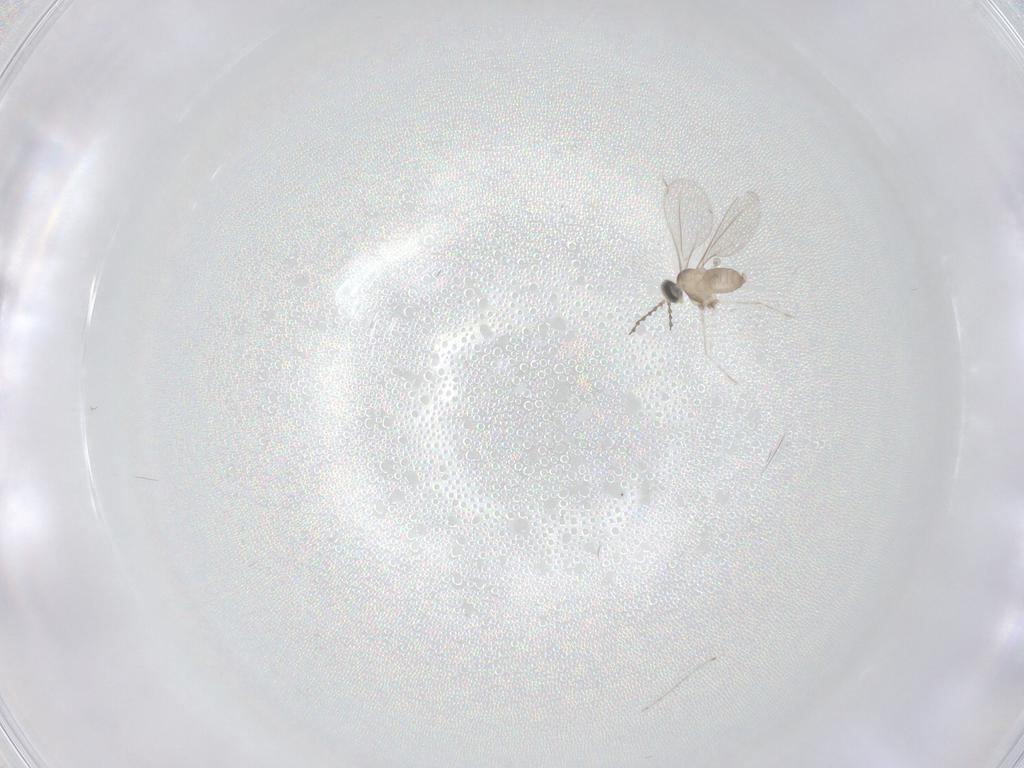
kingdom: Animalia
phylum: Arthropoda
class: Insecta
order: Diptera
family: Cecidomyiidae
